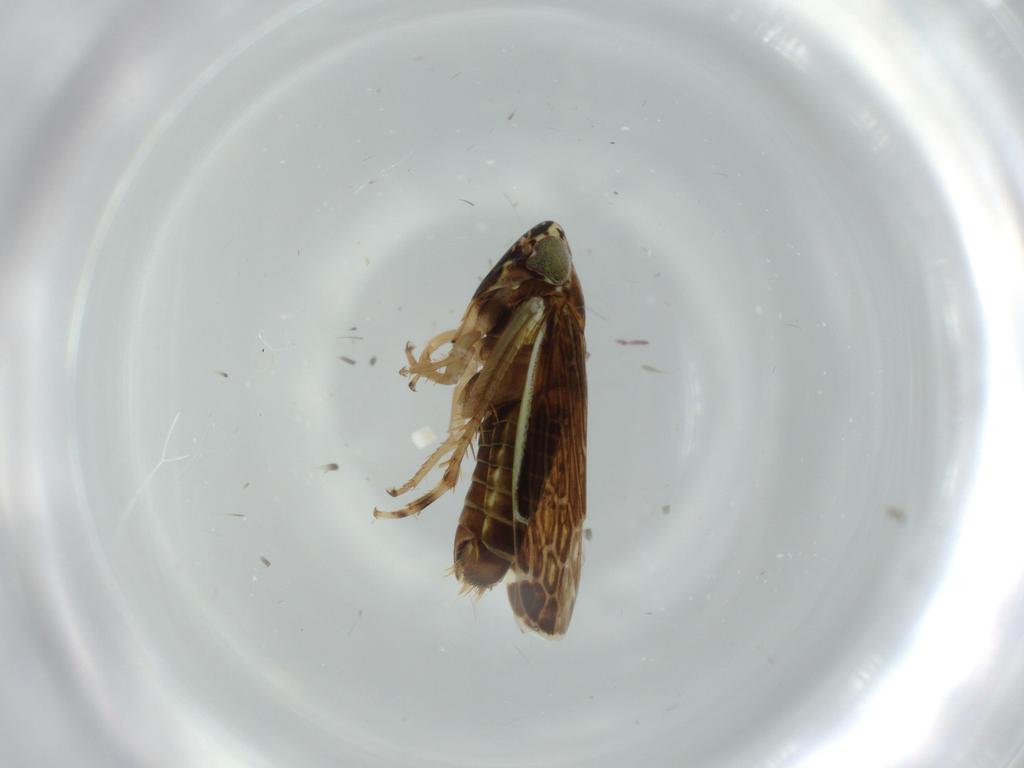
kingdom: Animalia
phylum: Arthropoda
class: Insecta
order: Hemiptera
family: Cicadellidae
